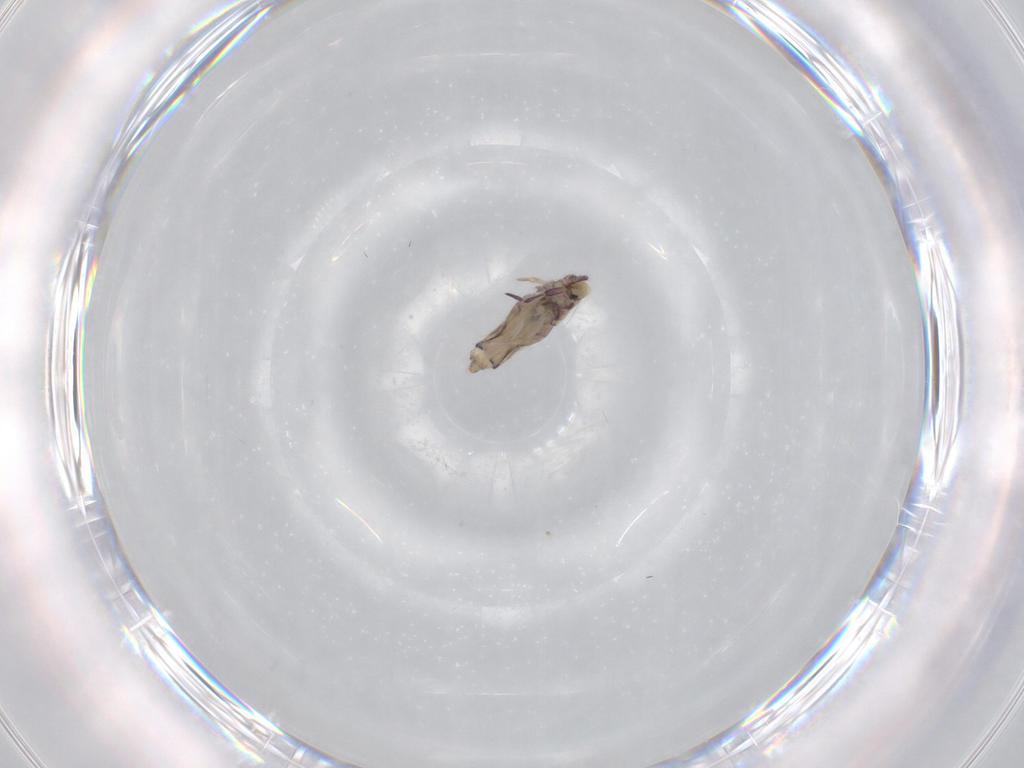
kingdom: Animalia
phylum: Arthropoda
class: Collembola
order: Entomobryomorpha
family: Entomobryidae
